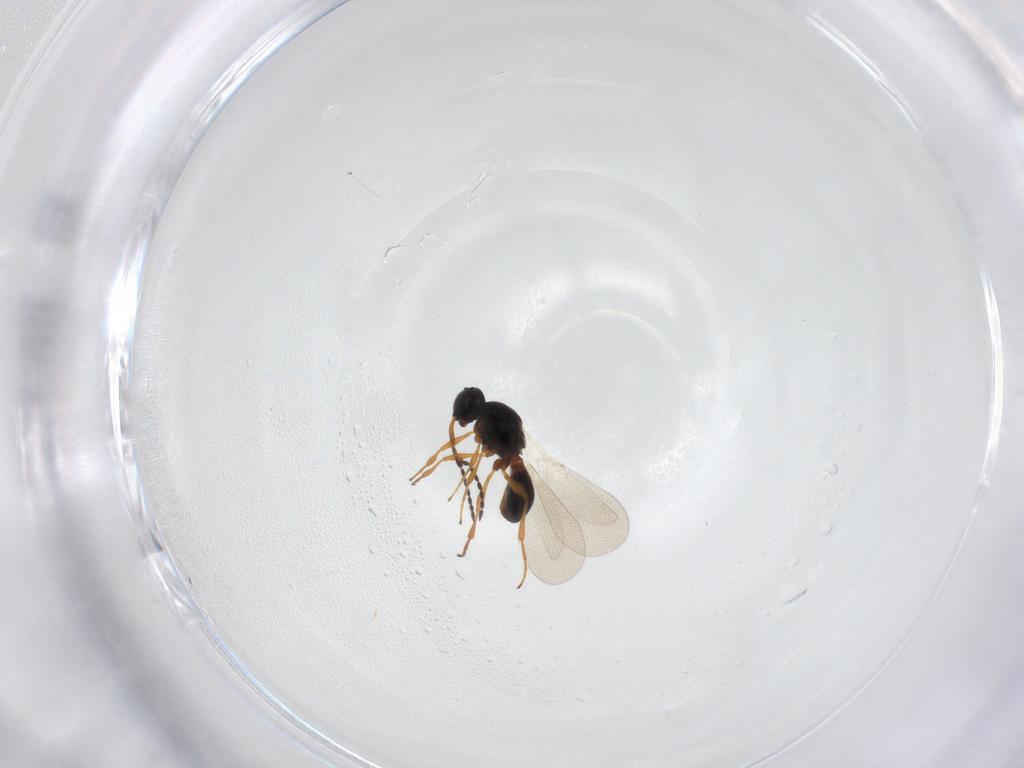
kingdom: Animalia
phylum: Arthropoda
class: Insecta
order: Hymenoptera
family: Platygastridae
